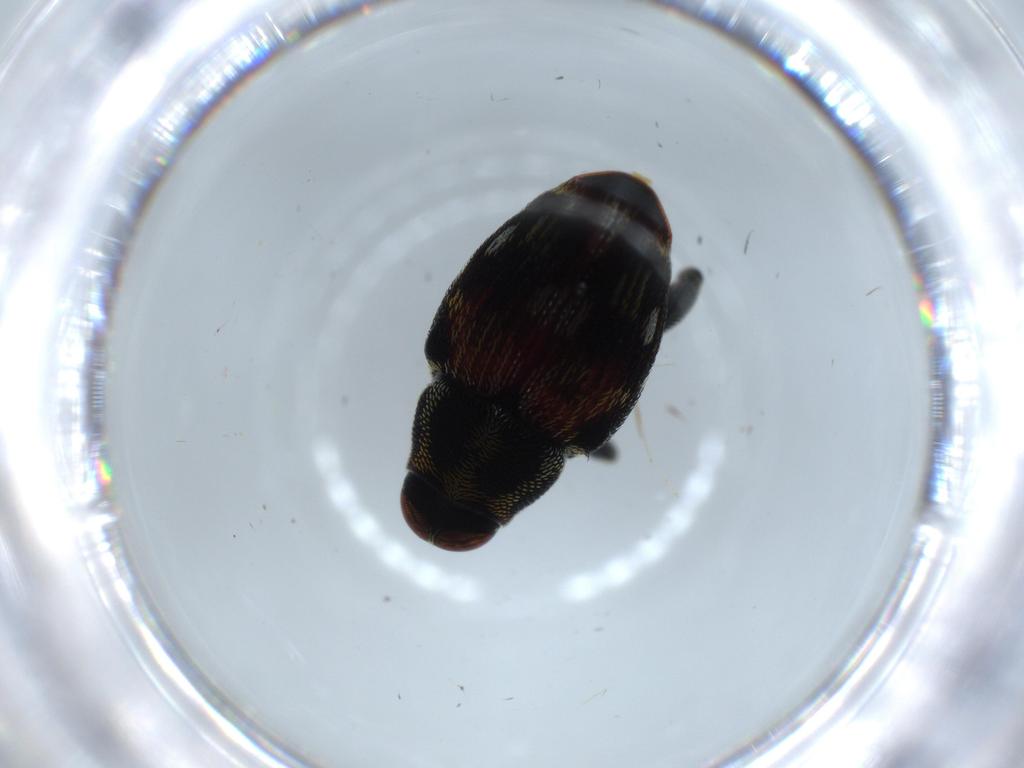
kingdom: Animalia
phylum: Arthropoda
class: Insecta
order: Coleoptera
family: Curculionidae
